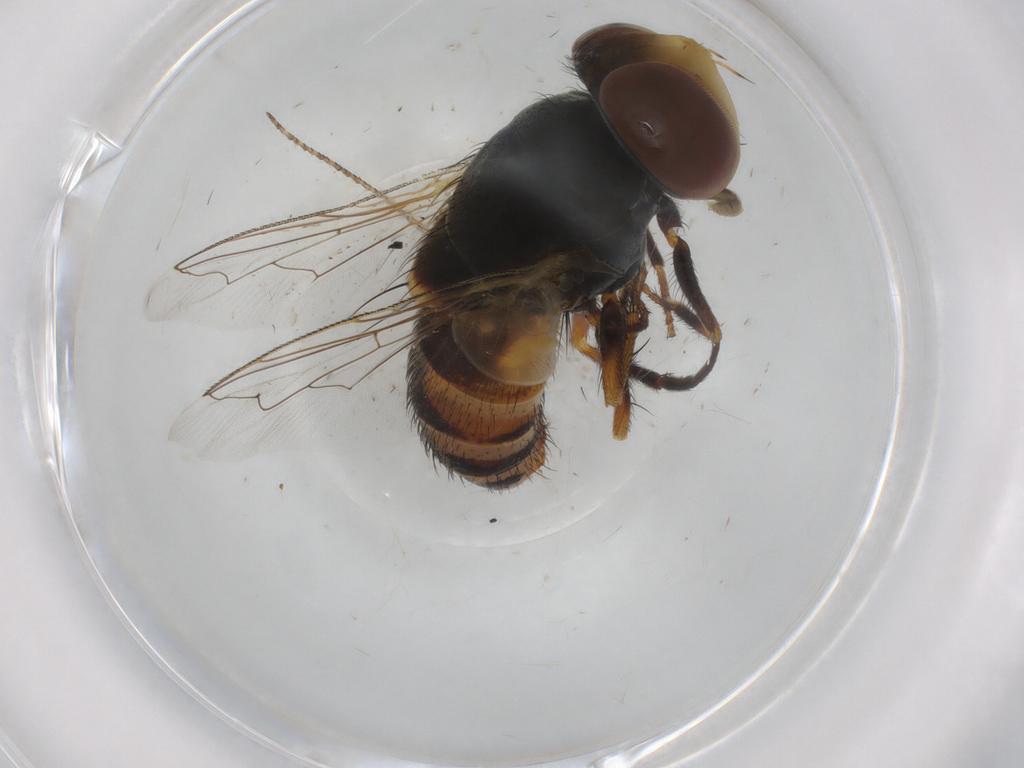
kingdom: Animalia
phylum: Arthropoda
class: Insecta
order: Diptera
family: Dolichopodidae
